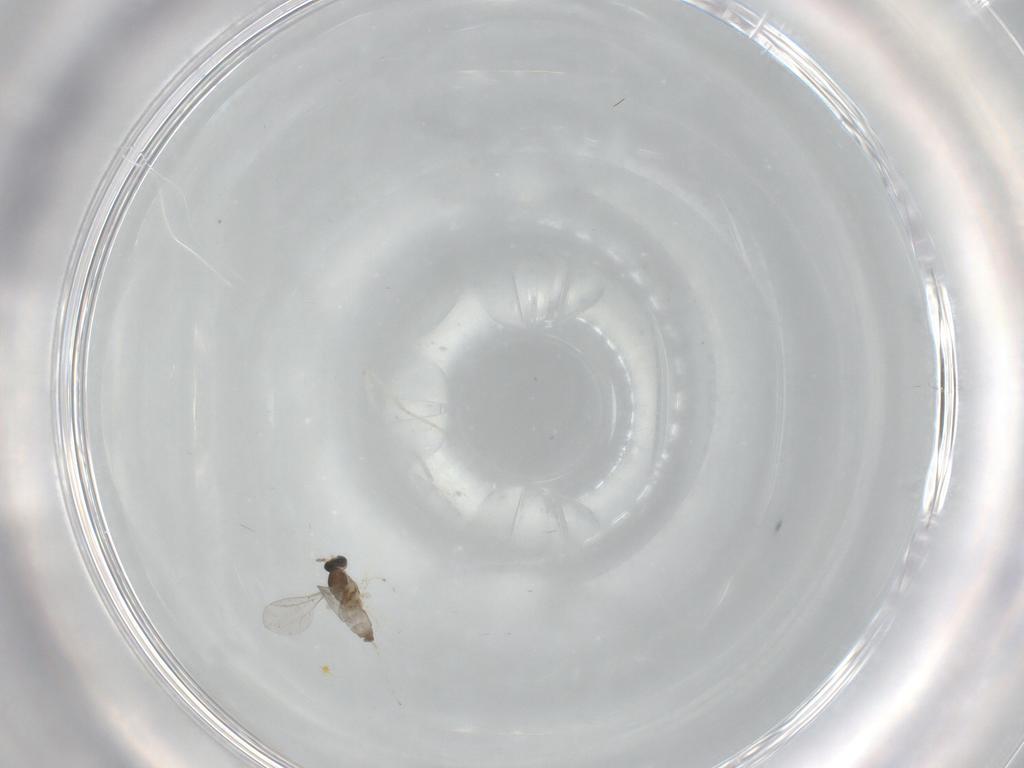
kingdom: Animalia
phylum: Arthropoda
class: Insecta
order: Diptera
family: Cecidomyiidae
